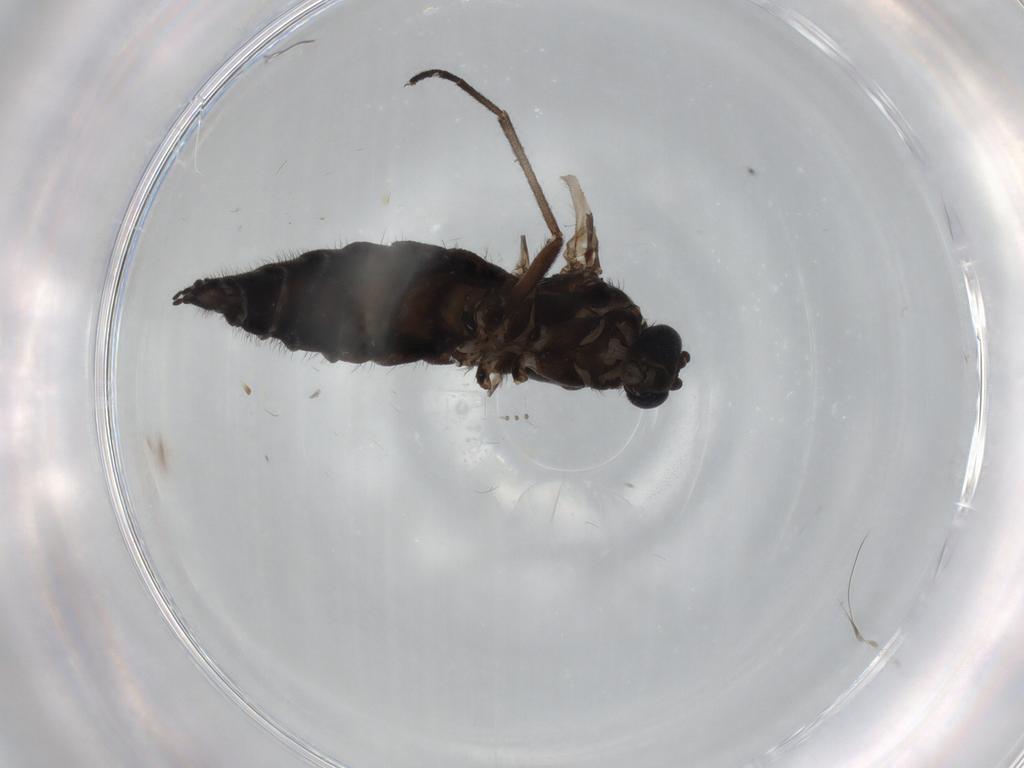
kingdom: Animalia
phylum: Arthropoda
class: Insecta
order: Diptera
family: Sciaridae
